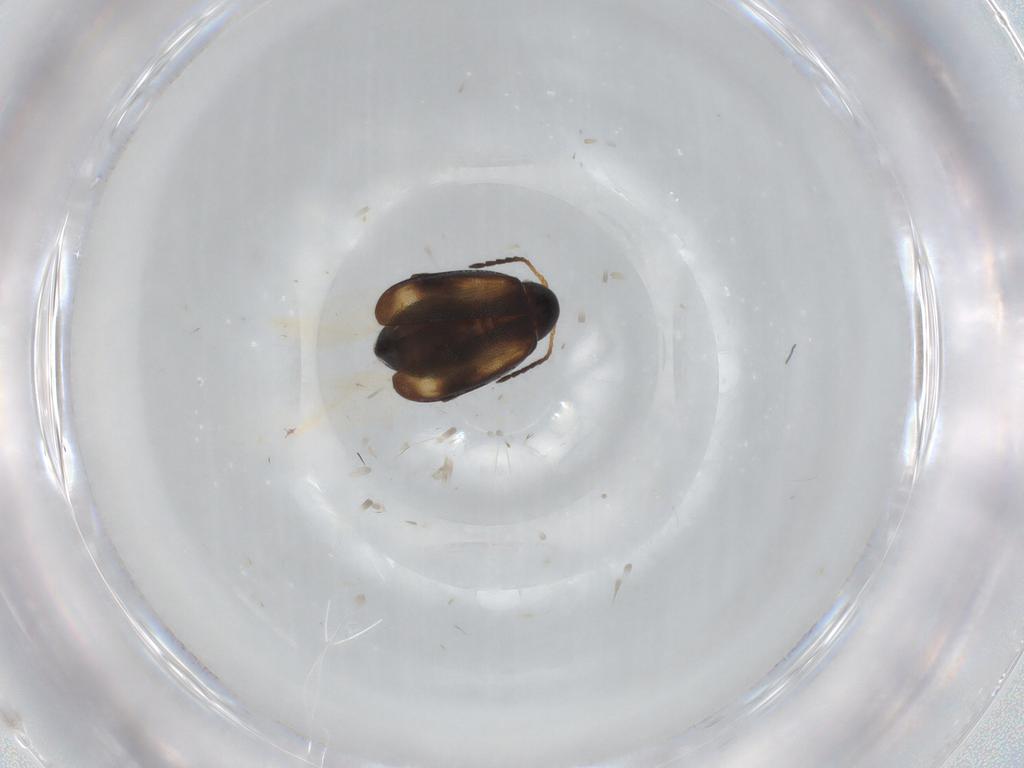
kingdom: Animalia
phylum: Arthropoda
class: Insecta
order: Coleoptera
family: Chrysomelidae
